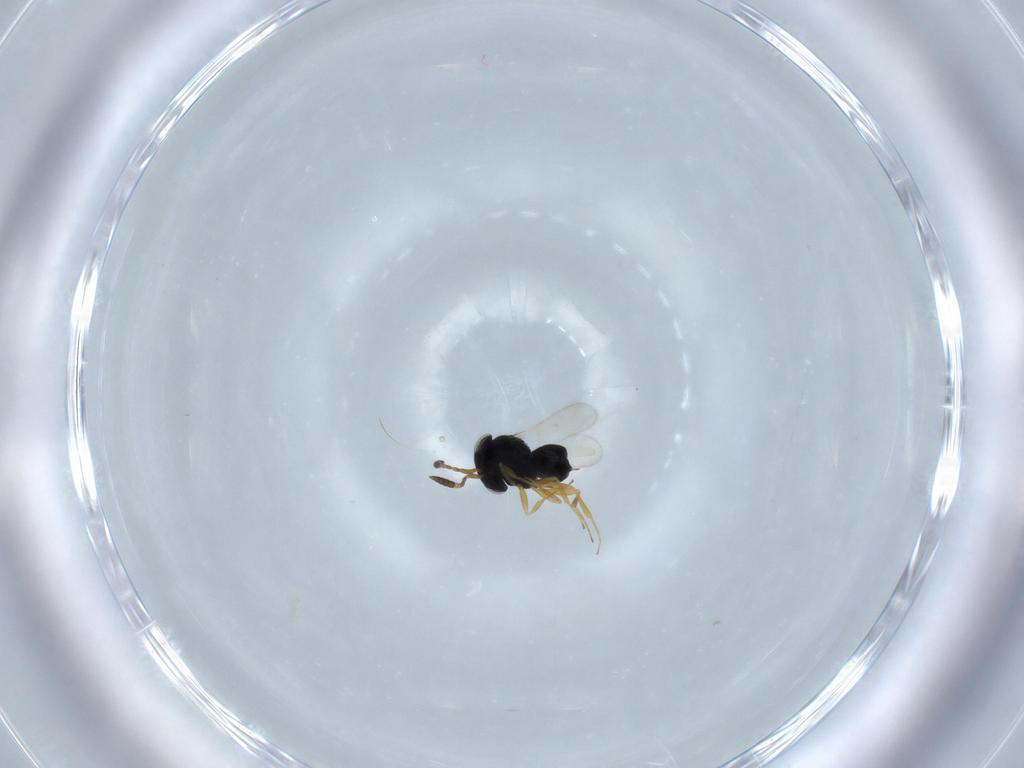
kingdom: Animalia
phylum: Arthropoda
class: Insecta
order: Hymenoptera
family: Scelionidae
